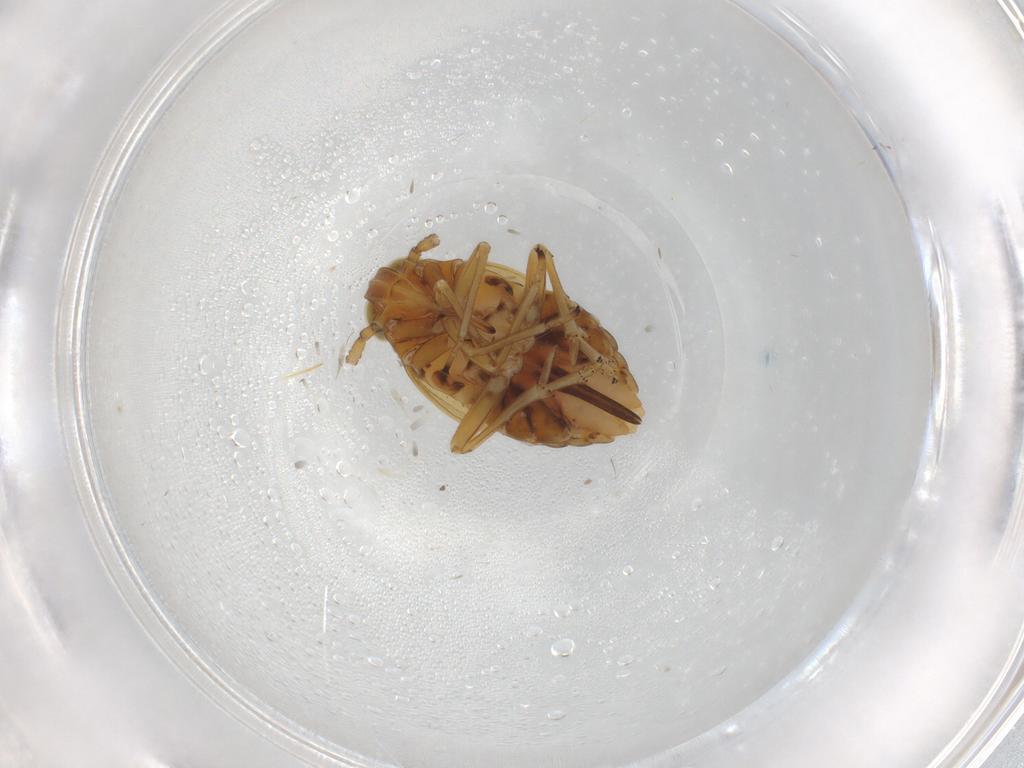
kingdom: Animalia
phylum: Arthropoda
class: Insecta
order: Hemiptera
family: Delphacidae
